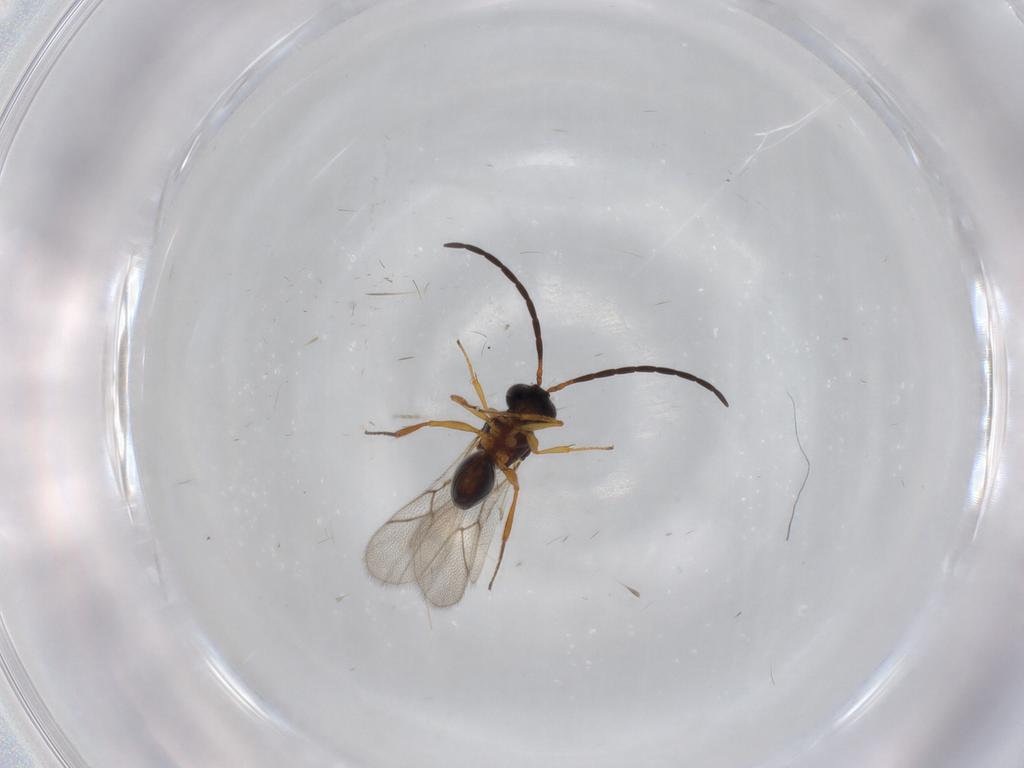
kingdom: Animalia
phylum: Arthropoda
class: Insecta
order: Hymenoptera
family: Figitidae
